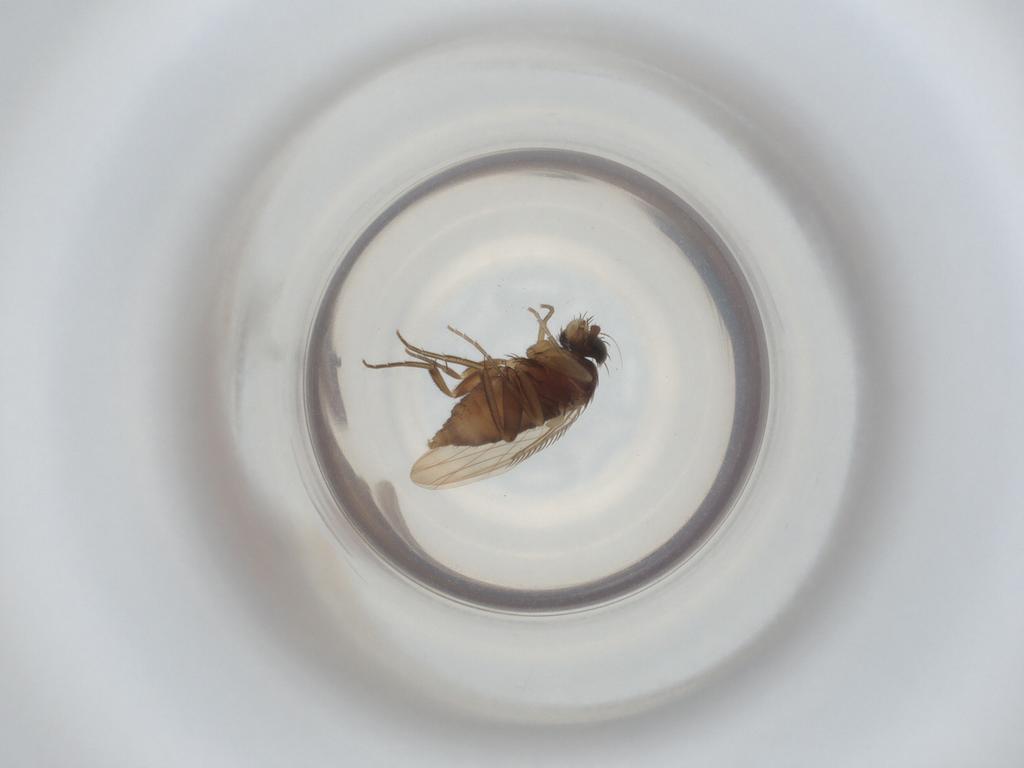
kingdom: Animalia
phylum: Arthropoda
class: Insecta
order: Diptera
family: Phoridae
